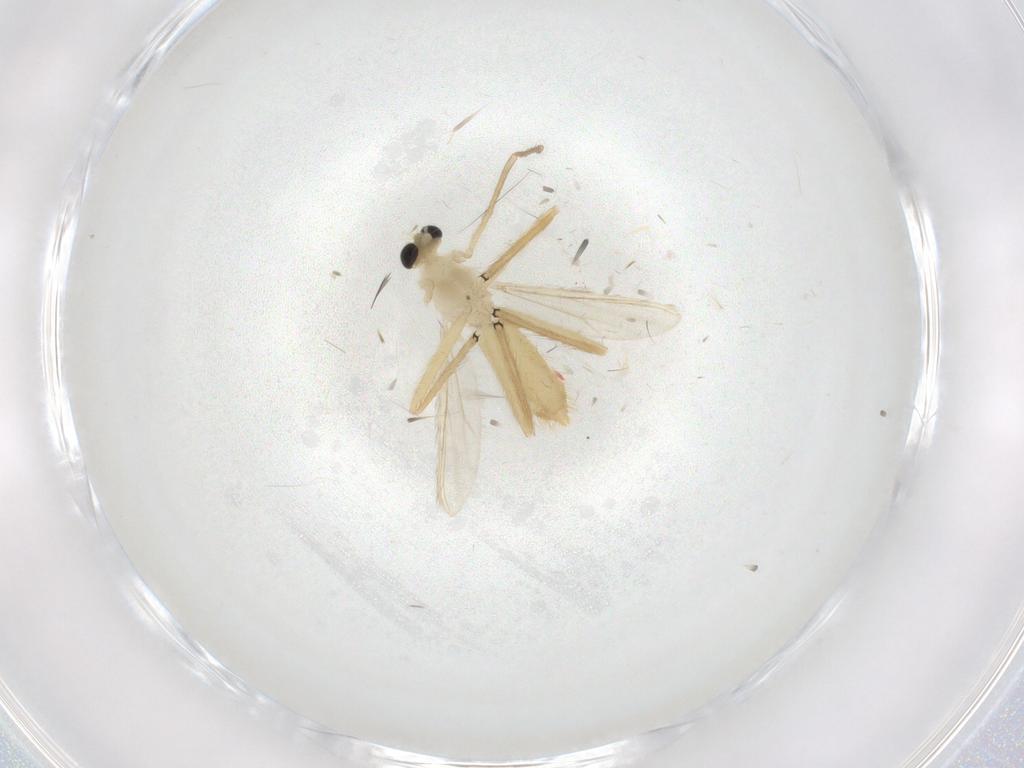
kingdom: Animalia
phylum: Arthropoda
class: Insecta
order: Diptera
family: Chironomidae
